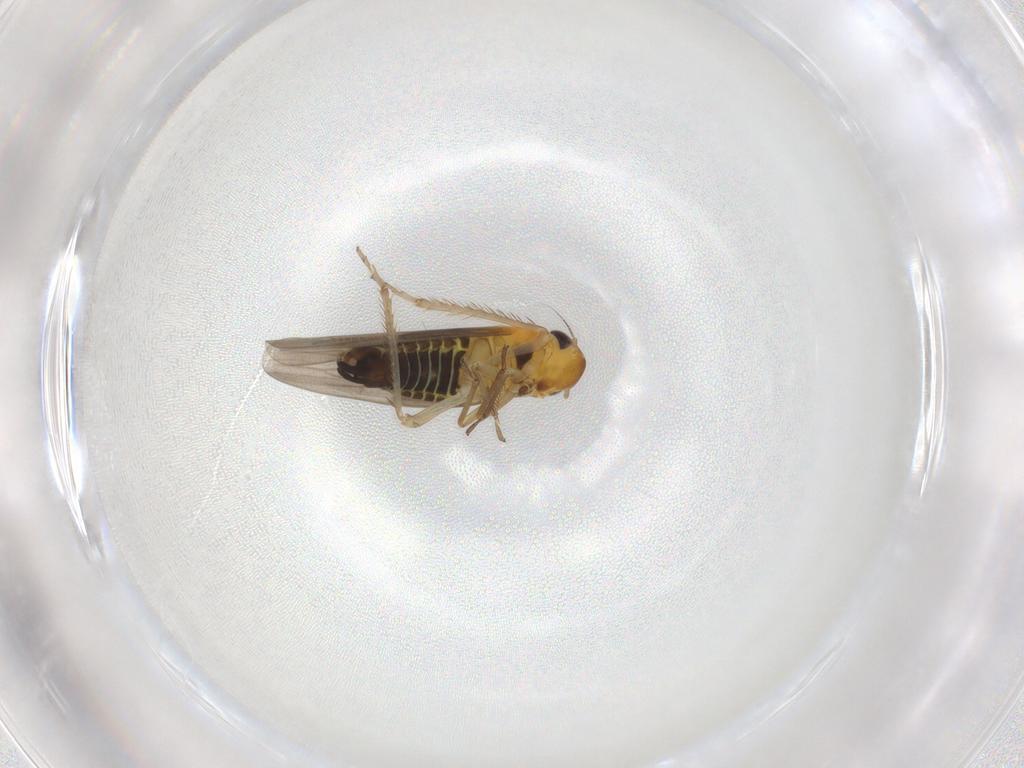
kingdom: Animalia
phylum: Arthropoda
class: Insecta
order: Hemiptera
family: Cicadellidae
